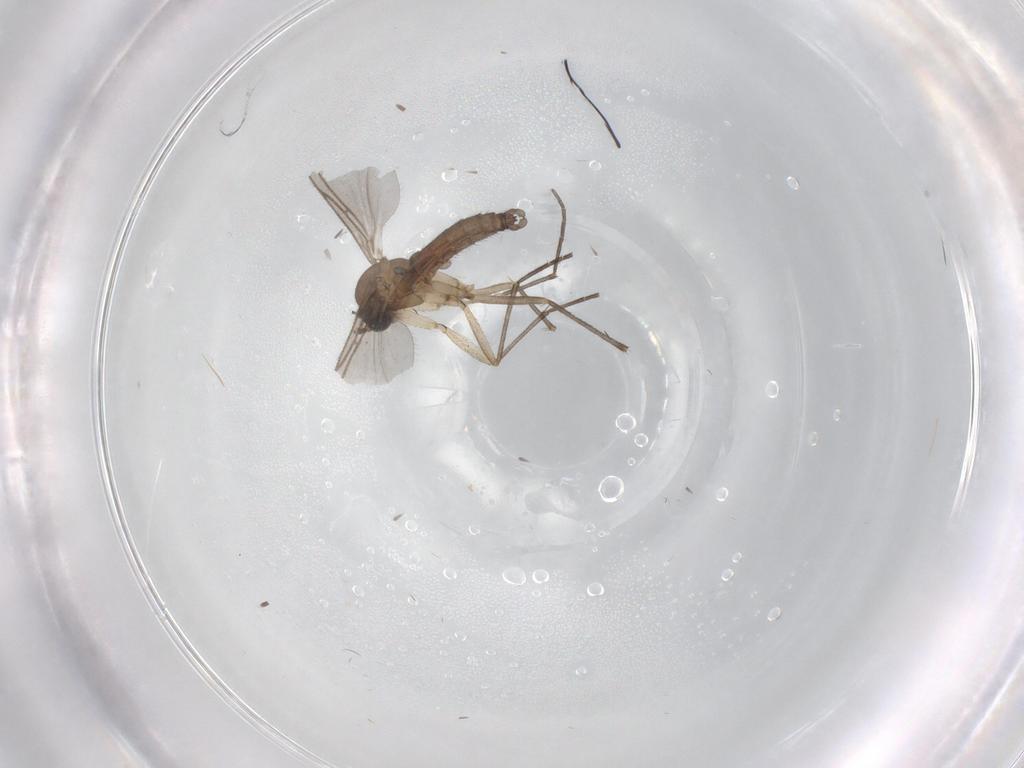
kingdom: Animalia
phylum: Arthropoda
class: Insecta
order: Diptera
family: Sciaridae
